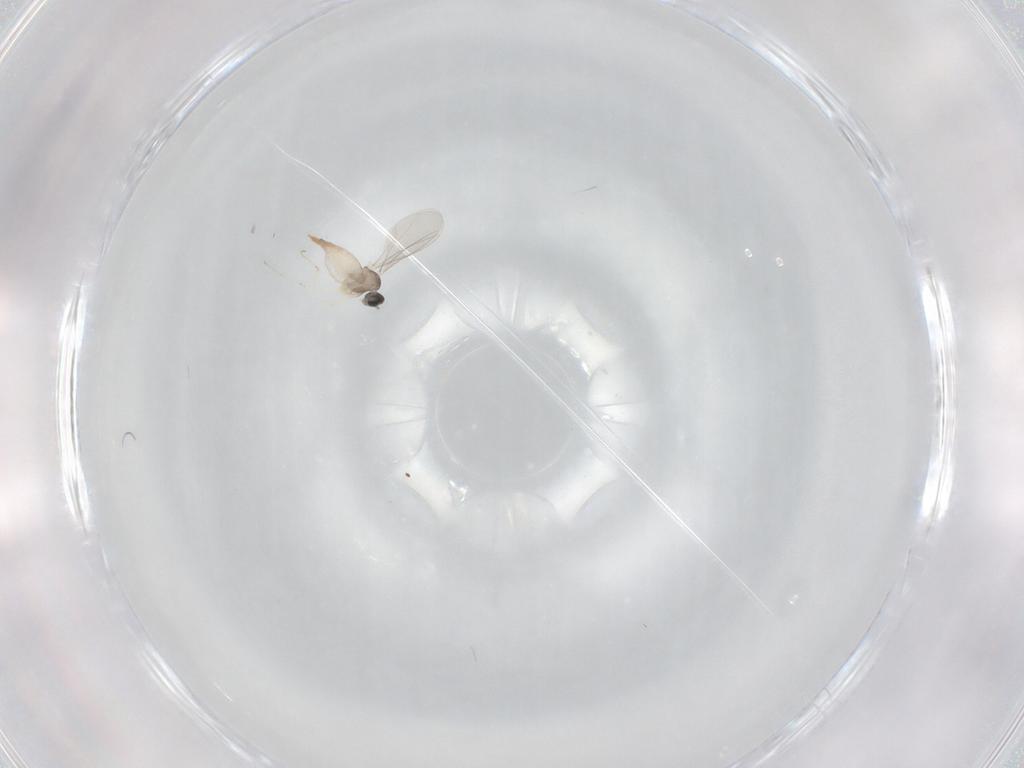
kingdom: Animalia
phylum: Arthropoda
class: Insecta
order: Diptera
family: Cecidomyiidae
